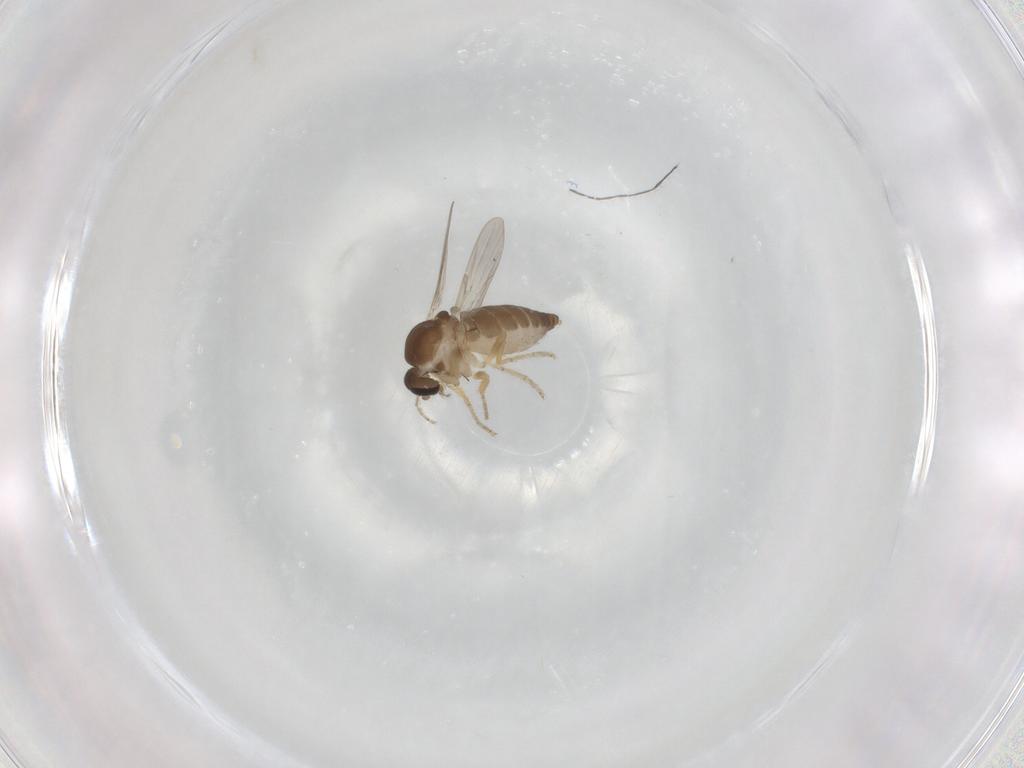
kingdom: Animalia
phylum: Arthropoda
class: Insecta
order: Diptera
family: Ceratopogonidae
